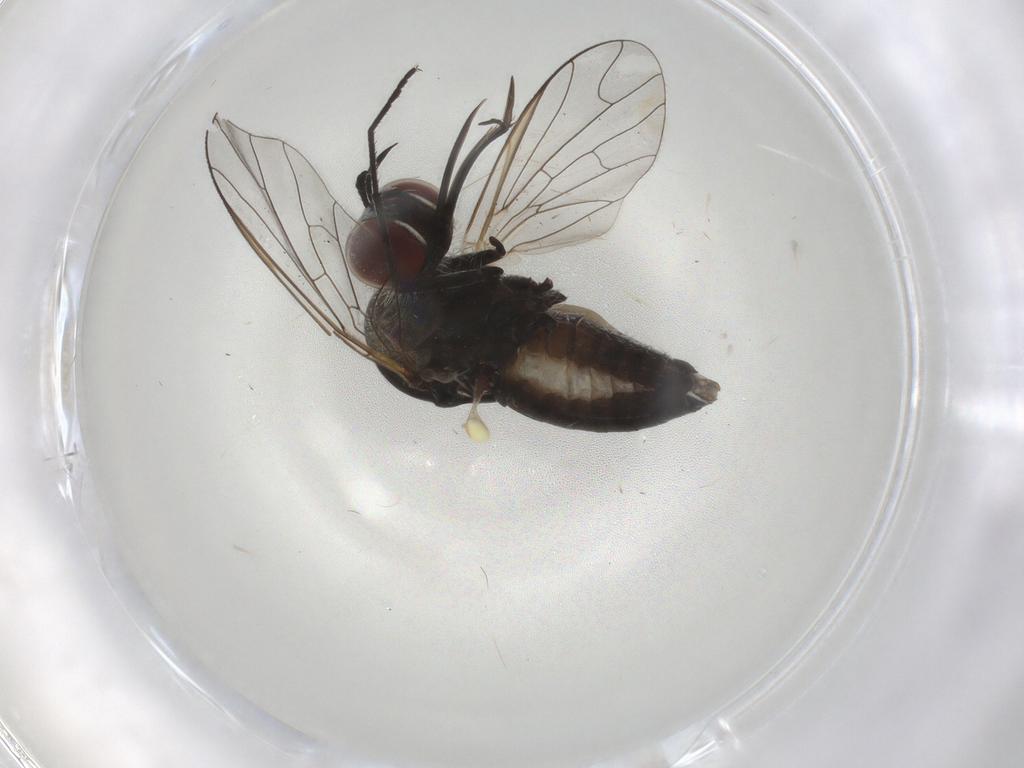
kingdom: Animalia
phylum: Arthropoda
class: Insecta
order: Diptera
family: Bombyliidae
